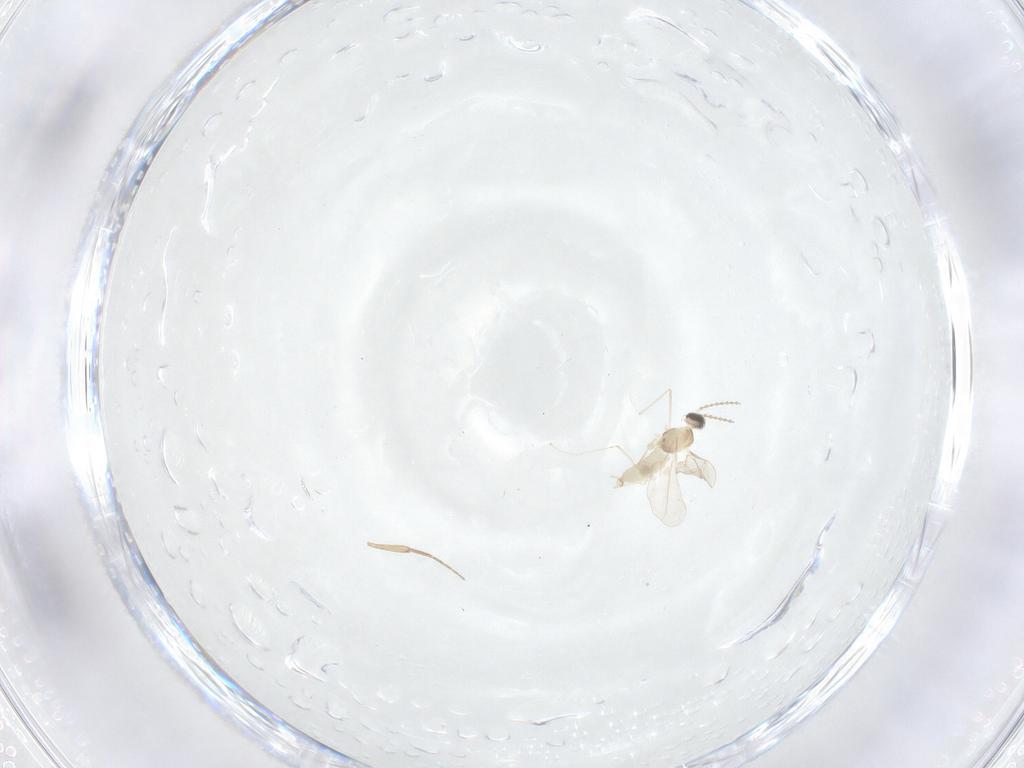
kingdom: Animalia
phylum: Arthropoda
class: Insecta
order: Diptera
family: Cecidomyiidae
